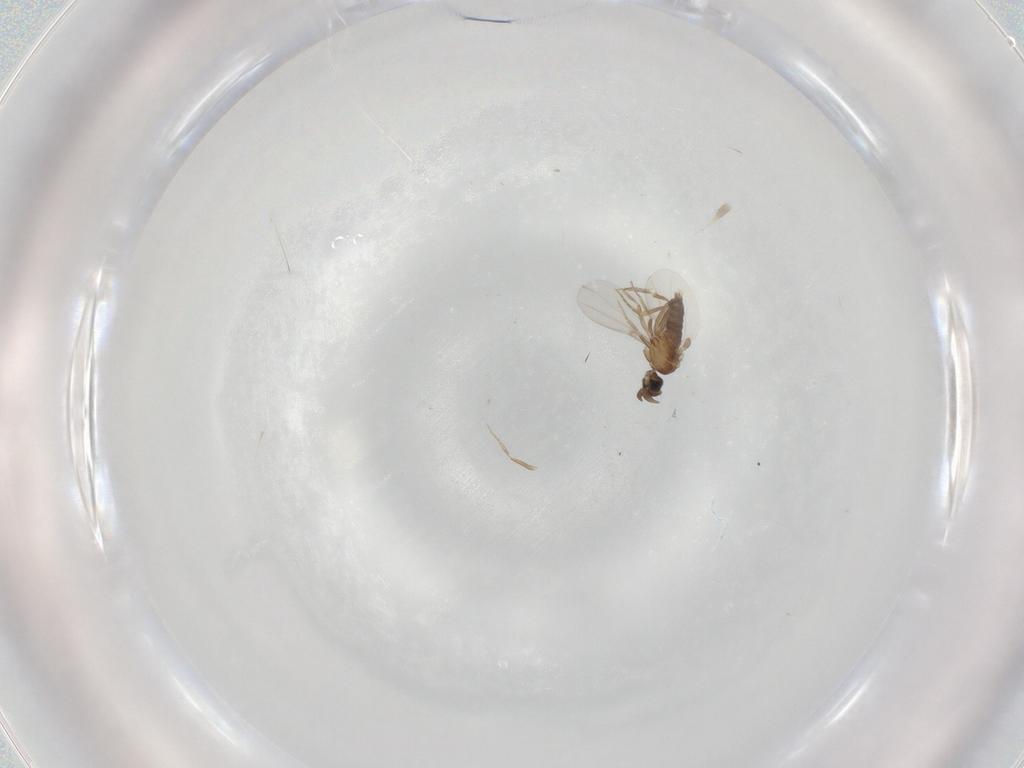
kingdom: Animalia
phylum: Arthropoda
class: Insecta
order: Diptera
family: Phoridae
